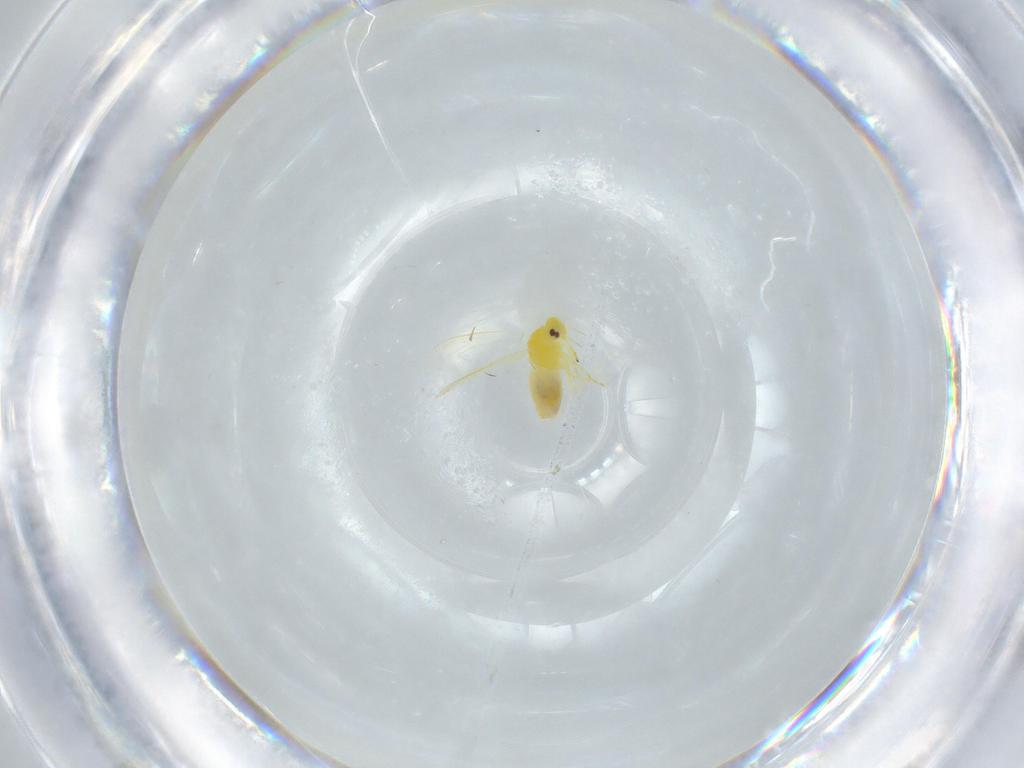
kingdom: Animalia
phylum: Arthropoda
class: Insecta
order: Hemiptera
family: Aleyrodidae
